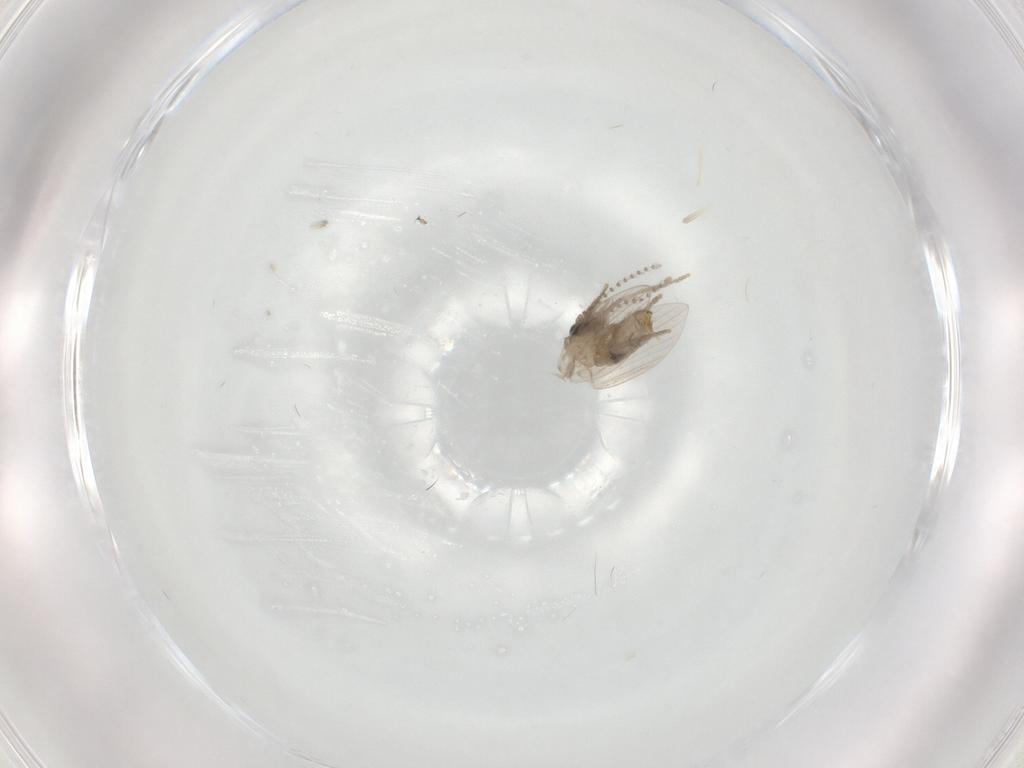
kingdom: Animalia
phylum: Arthropoda
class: Insecta
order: Diptera
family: Psychodidae
